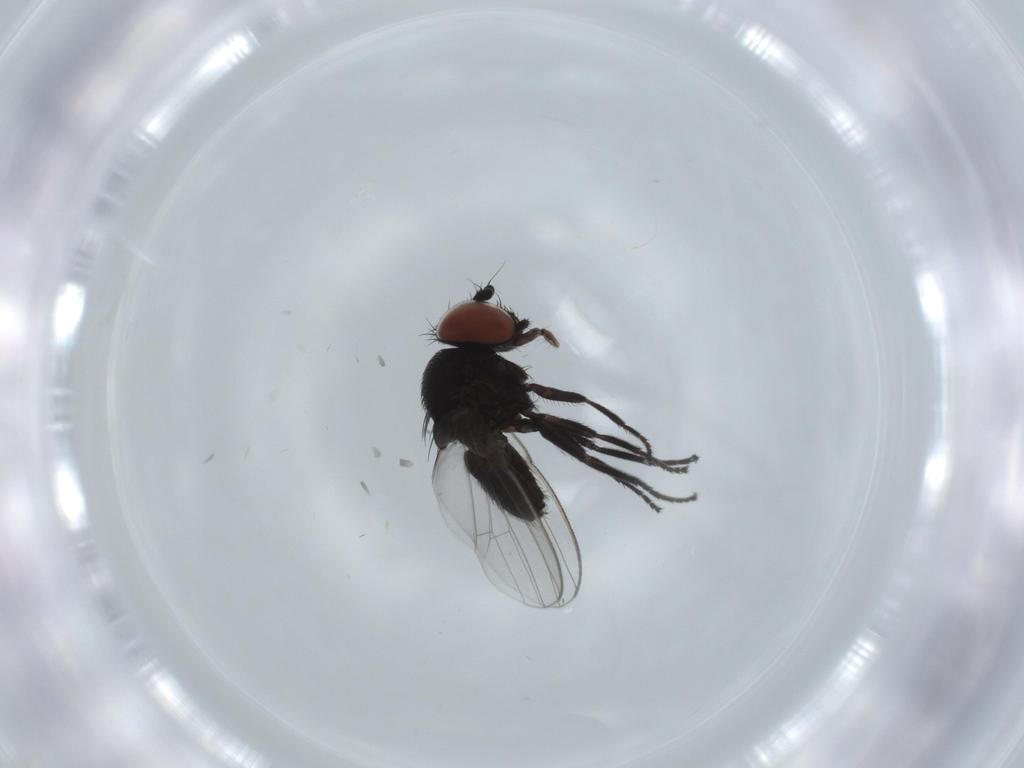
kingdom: Animalia
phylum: Arthropoda
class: Insecta
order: Diptera
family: Milichiidae
